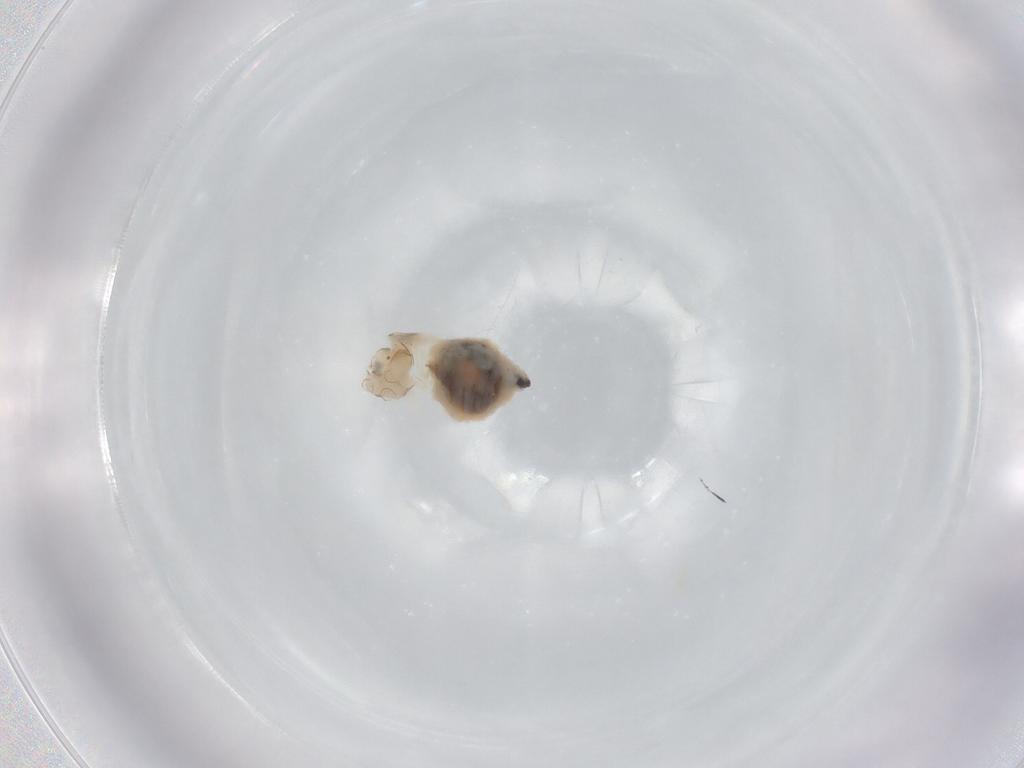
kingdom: Animalia
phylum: Arthropoda
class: Insecta
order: Psocodea
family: Stenopsocidae
